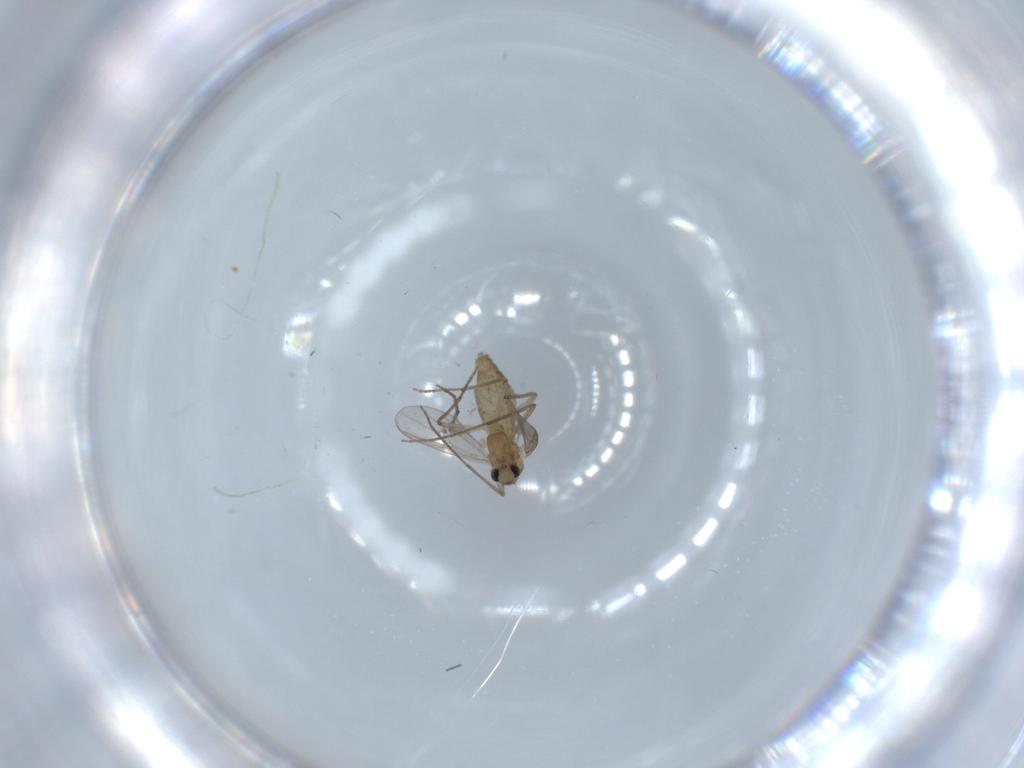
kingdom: Animalia
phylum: Arthropoda
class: Insecta
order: Diptera
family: Chironomidae
